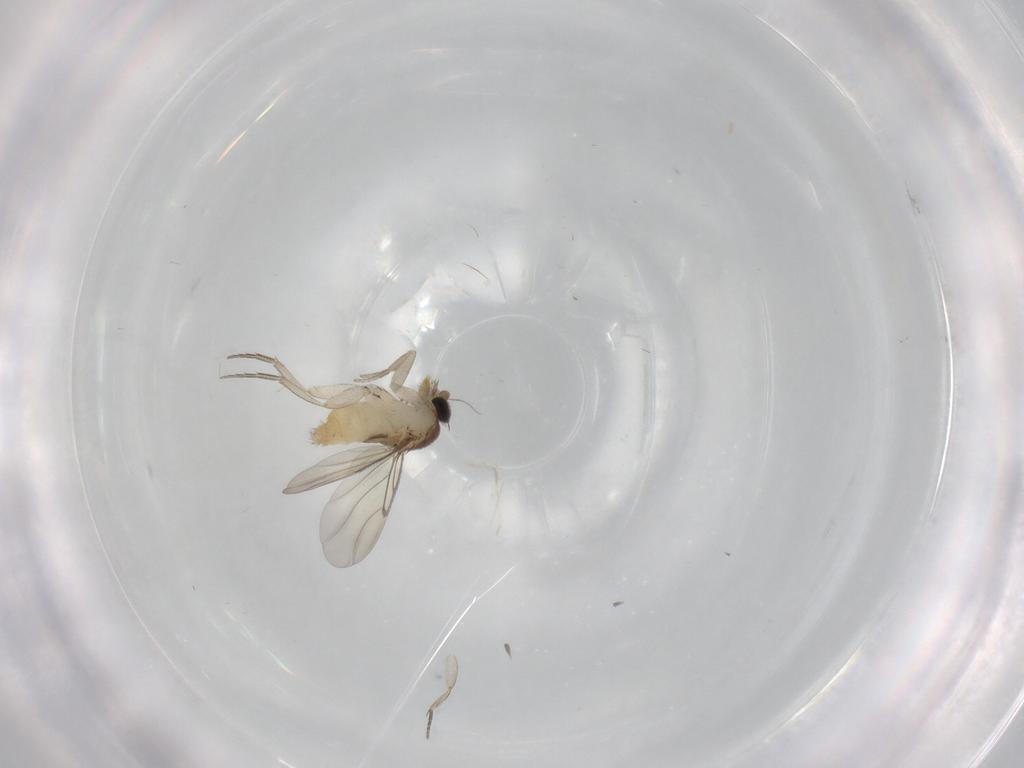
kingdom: Animalia
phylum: Arthropoda
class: Insecta
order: Diptera
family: Phoridae
